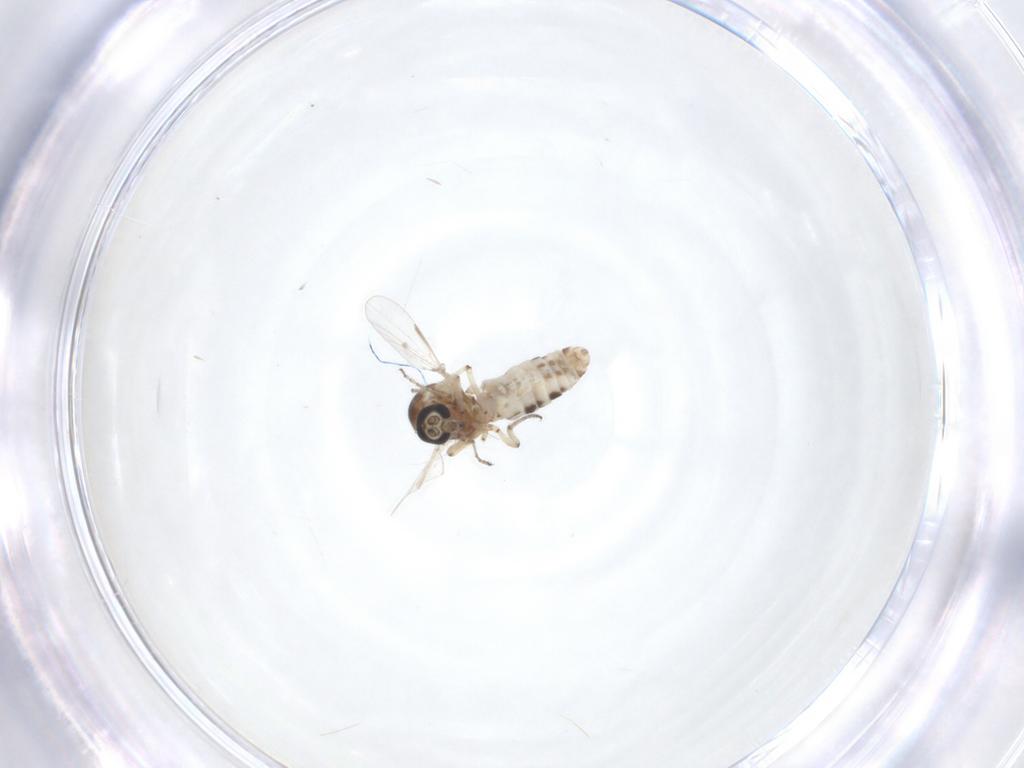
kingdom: Animalia
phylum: Arthropoda
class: Insecta
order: Diptera
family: Ceratopogonidae
